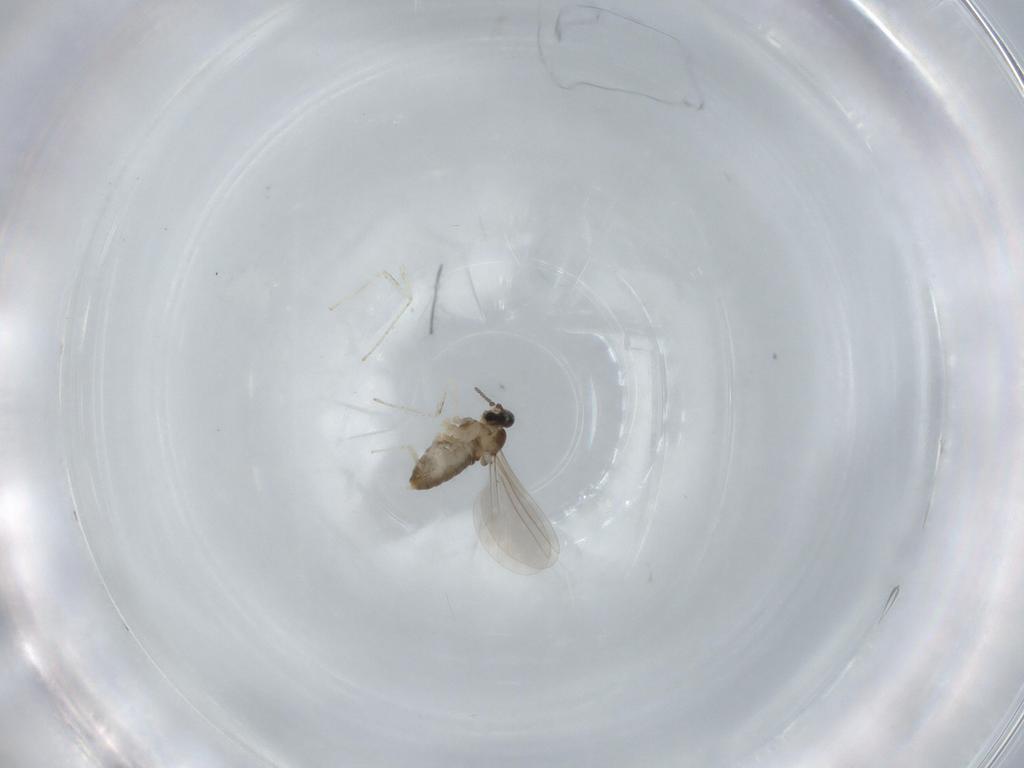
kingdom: Animalia
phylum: Arthropoda
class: Insecta
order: Diptera
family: Cecidomyiidae
